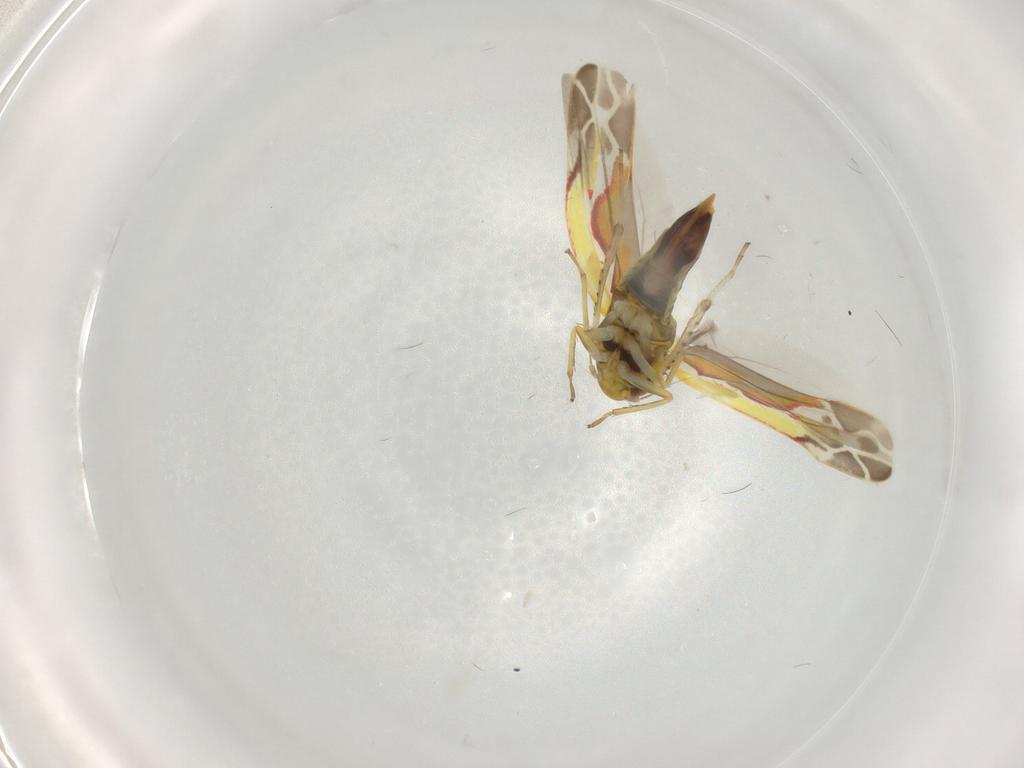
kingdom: Animalia
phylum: Arthropoda
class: Insecta
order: Hemiptera
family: Cicadellidae
